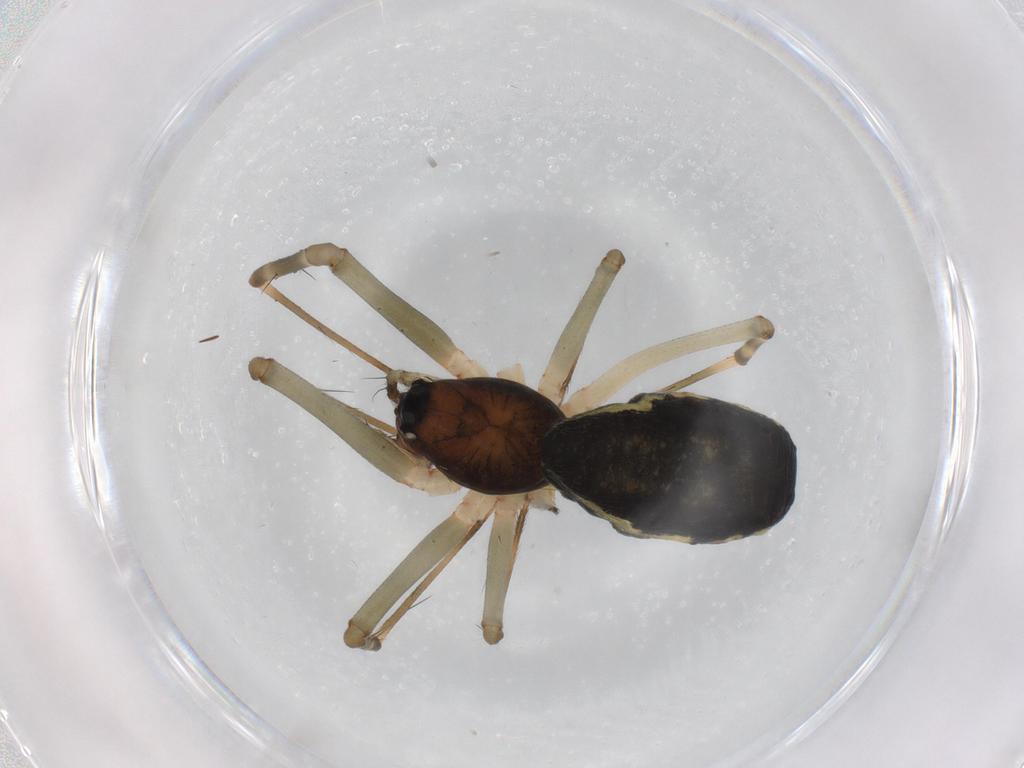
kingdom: Animalia
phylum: Arthropoda
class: Arachnida
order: Araneae
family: Linyphiidae
